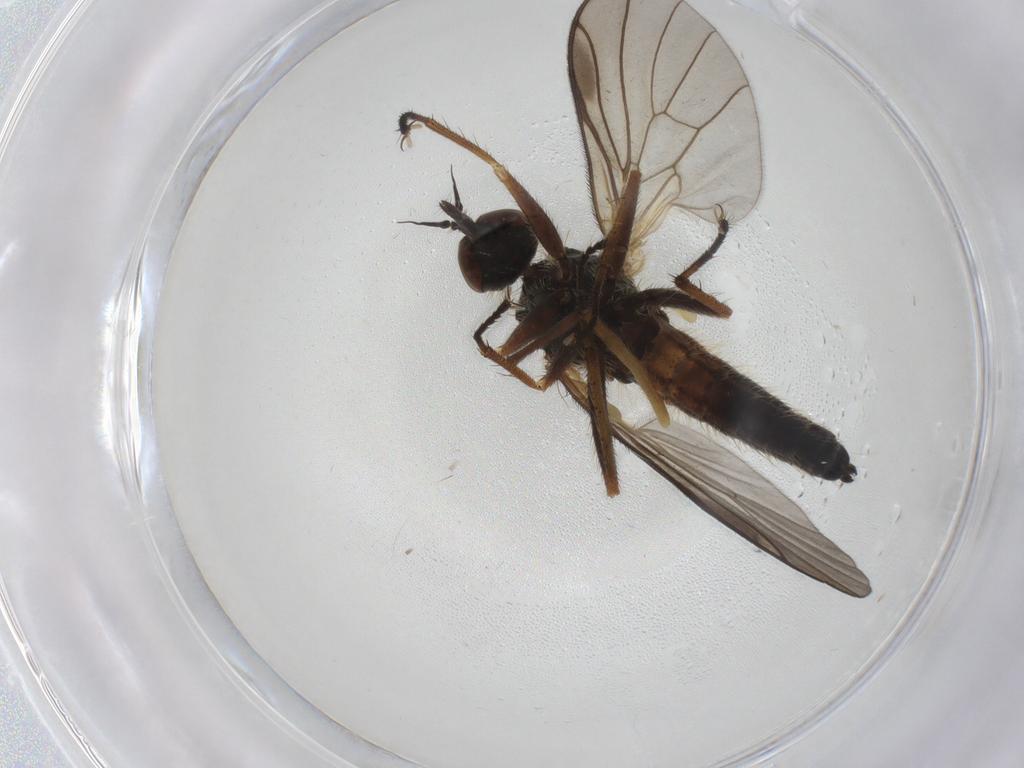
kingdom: Animalia
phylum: Arthropoda
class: Insecta
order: Diptera
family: Empididae
